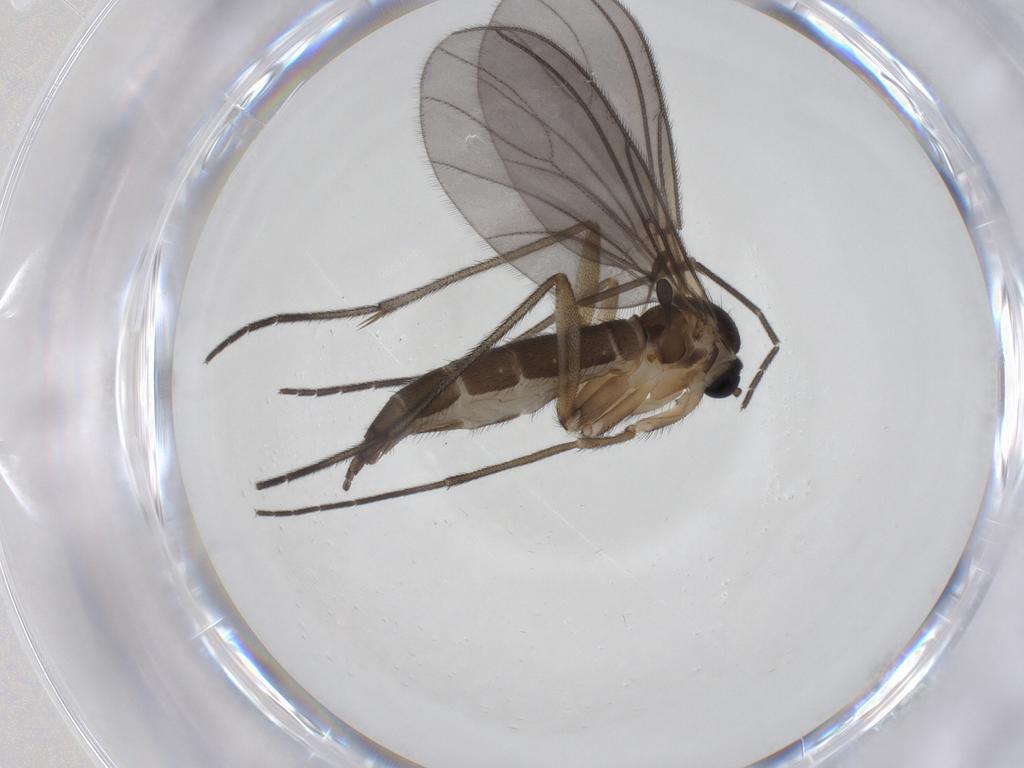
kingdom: Animalia
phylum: Arthropoda
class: Insecta
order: Diptera
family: Sciaridae
